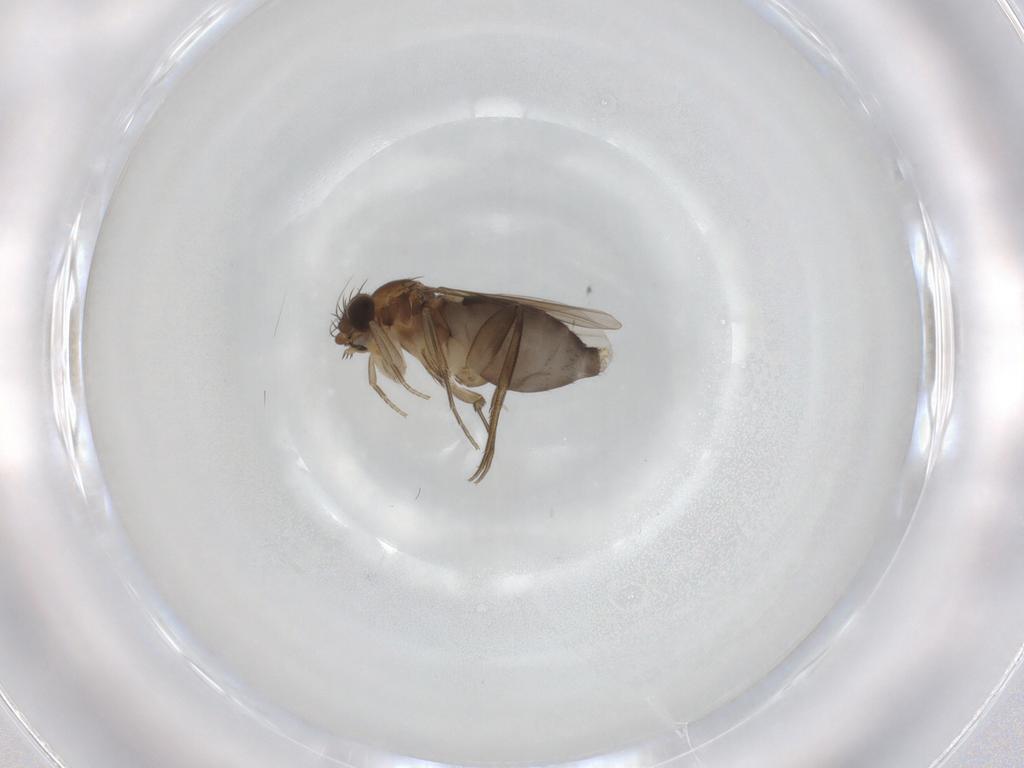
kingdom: Animalia
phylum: Arthropoda
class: Insecta
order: Diptera
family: Phoridae
